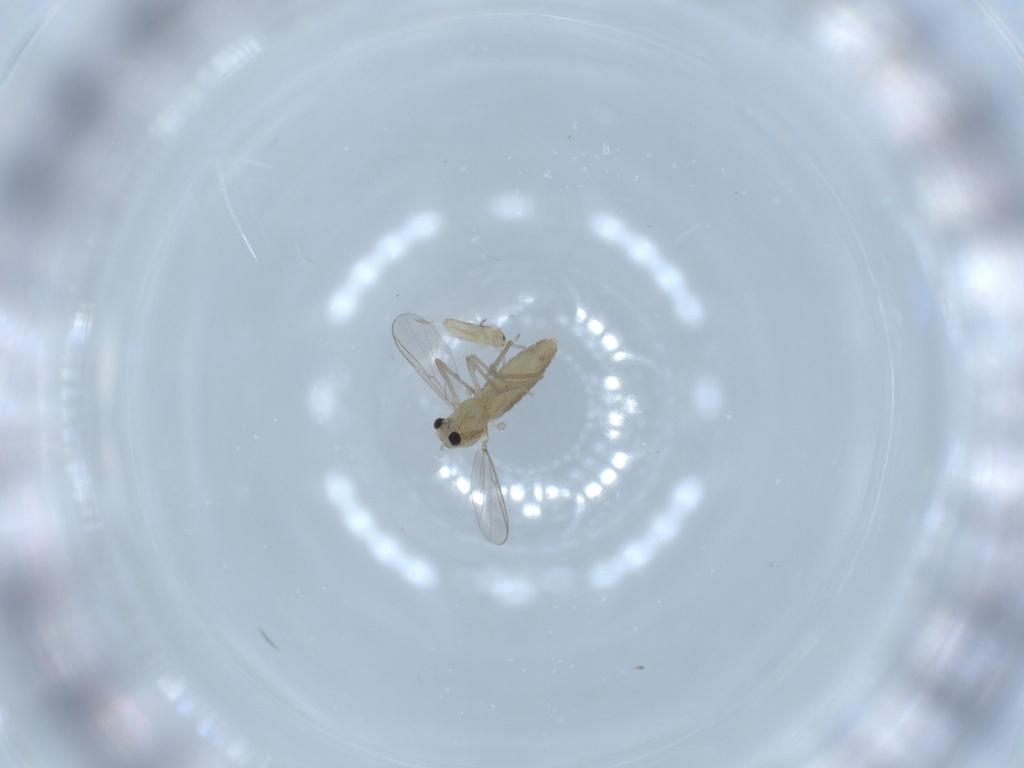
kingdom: Animalia
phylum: Arthropoda
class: Insecta
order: Diptera
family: Chironomidae
